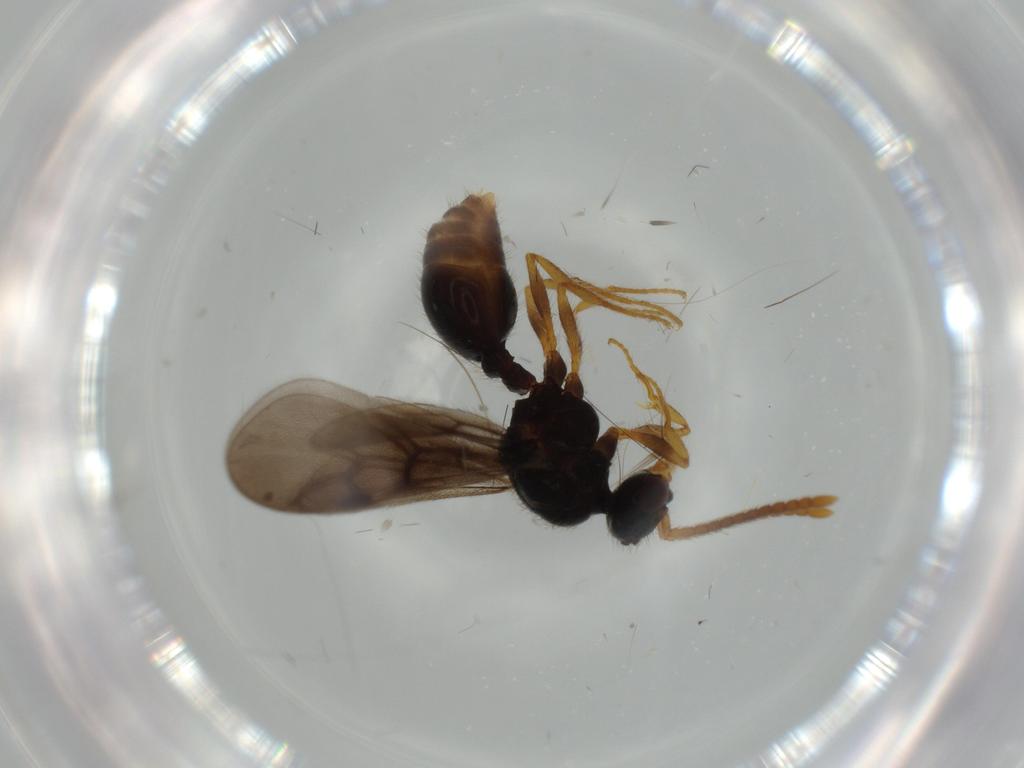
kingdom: Animalia
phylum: Arthropoda
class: Insecta
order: Hymenoptera
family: Formicidae
